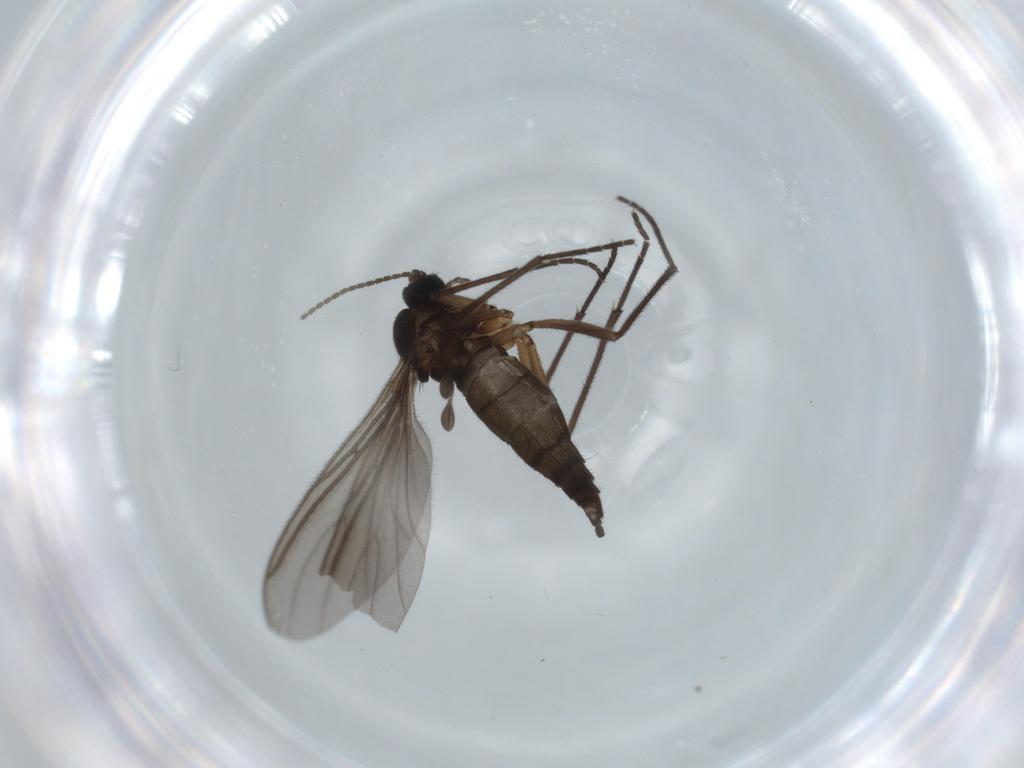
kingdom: Animalia
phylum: Arthropoda
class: Insecta
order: Diptera
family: Sciaridae
